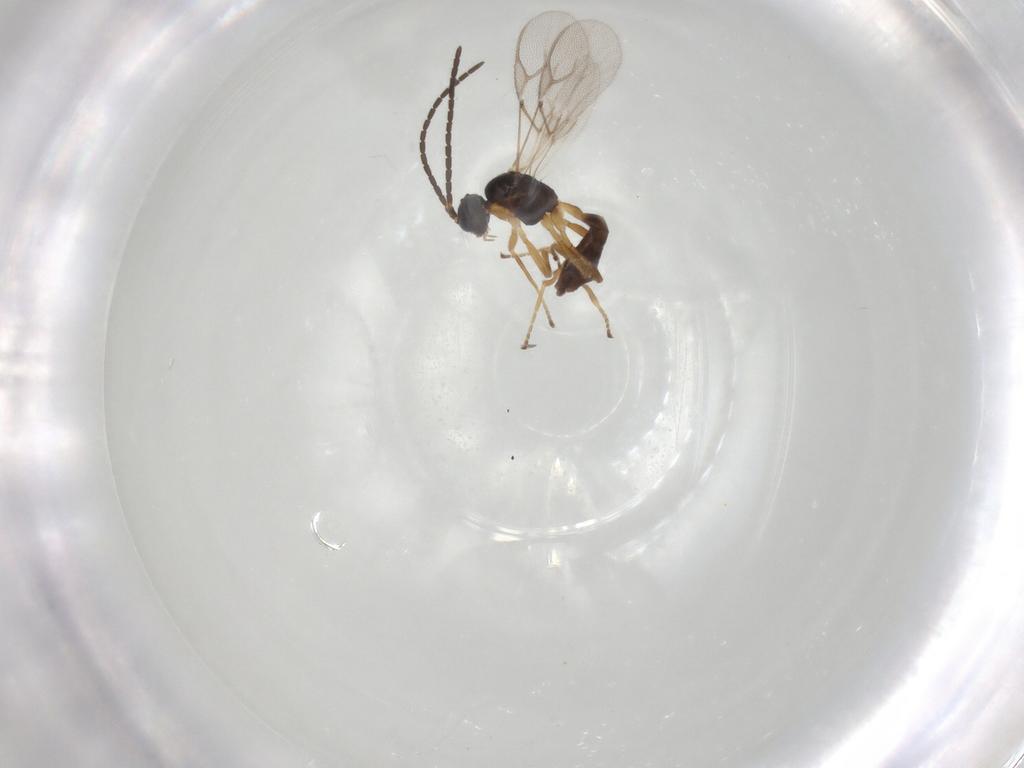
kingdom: Animalia
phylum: Arthropoda
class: Insecta
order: Hymenoptera
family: Braconidae
